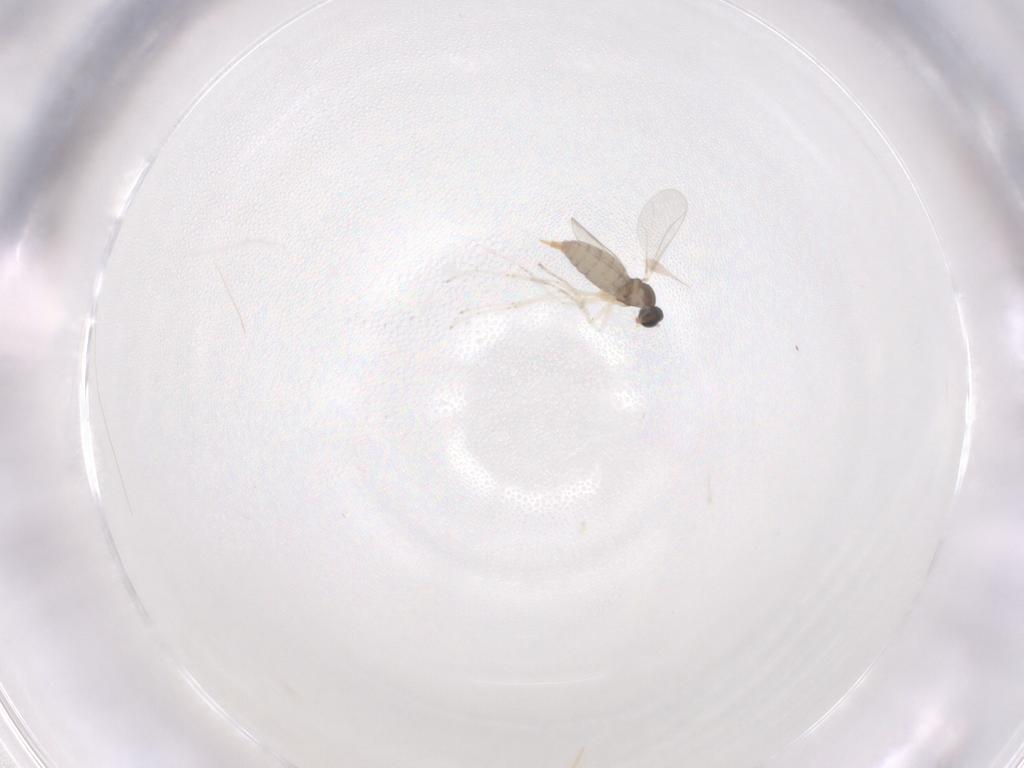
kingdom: Animalia
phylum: Arthropoda
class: Insecta
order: Diptera
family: Cecidomyiidae
